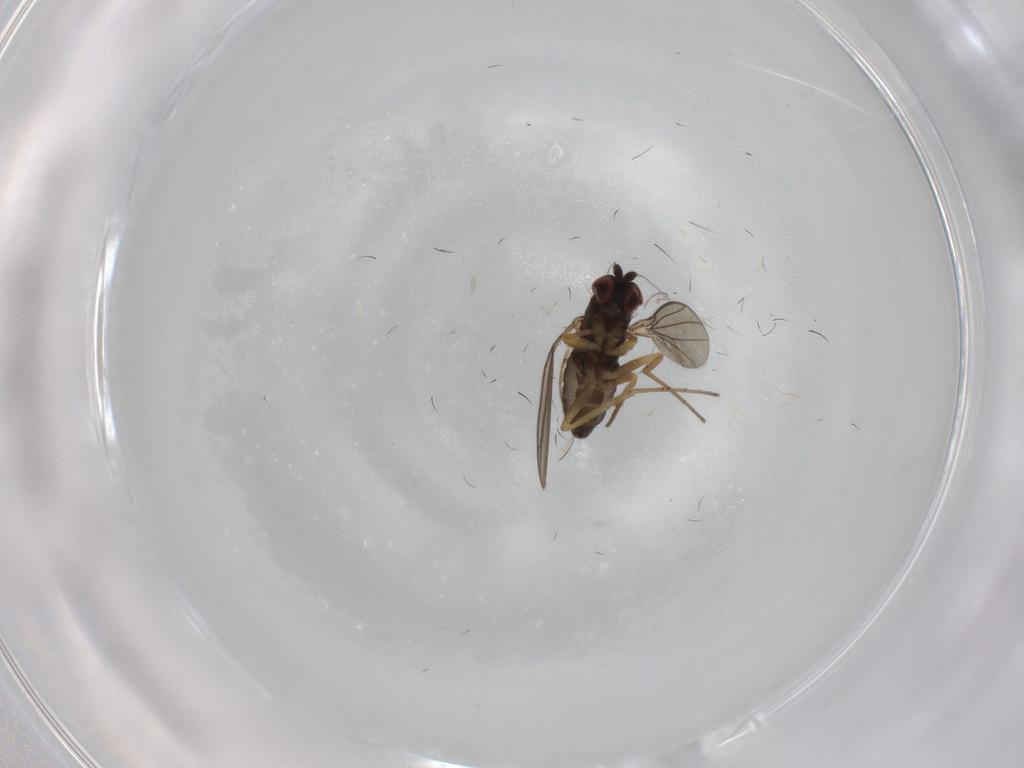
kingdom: Animalia
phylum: Arthropoda
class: Insecta
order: Diptera
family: Dolichopodidae
